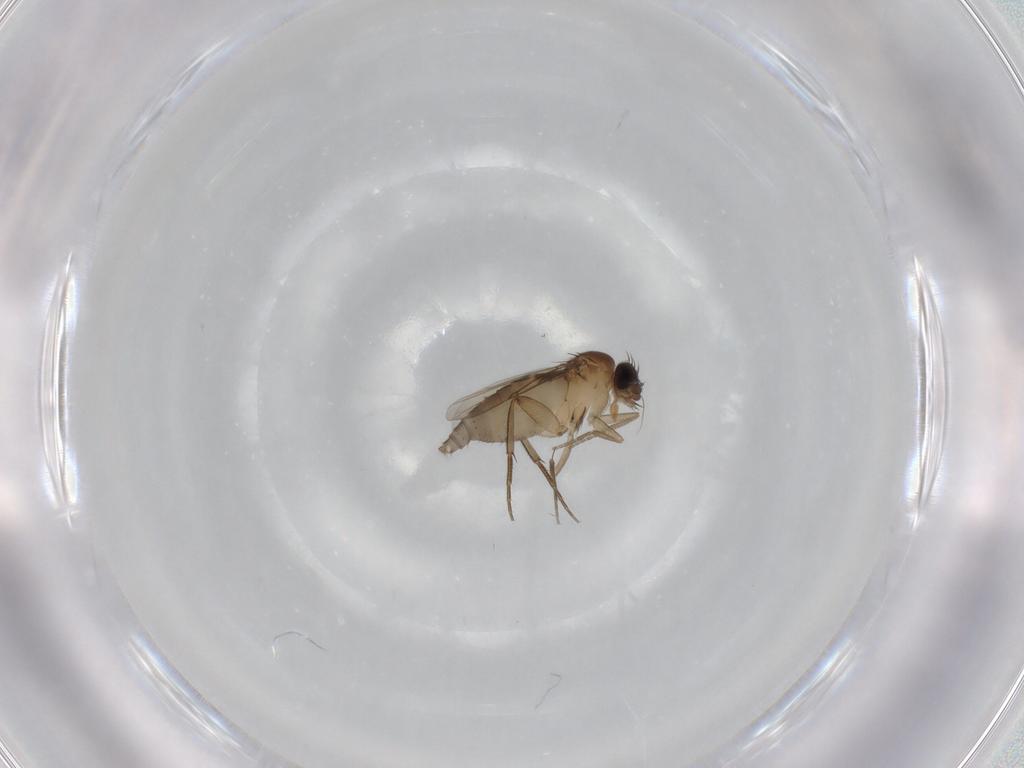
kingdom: Animalia
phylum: Arthropoda
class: Insecta
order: Diptera
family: Phoridae
